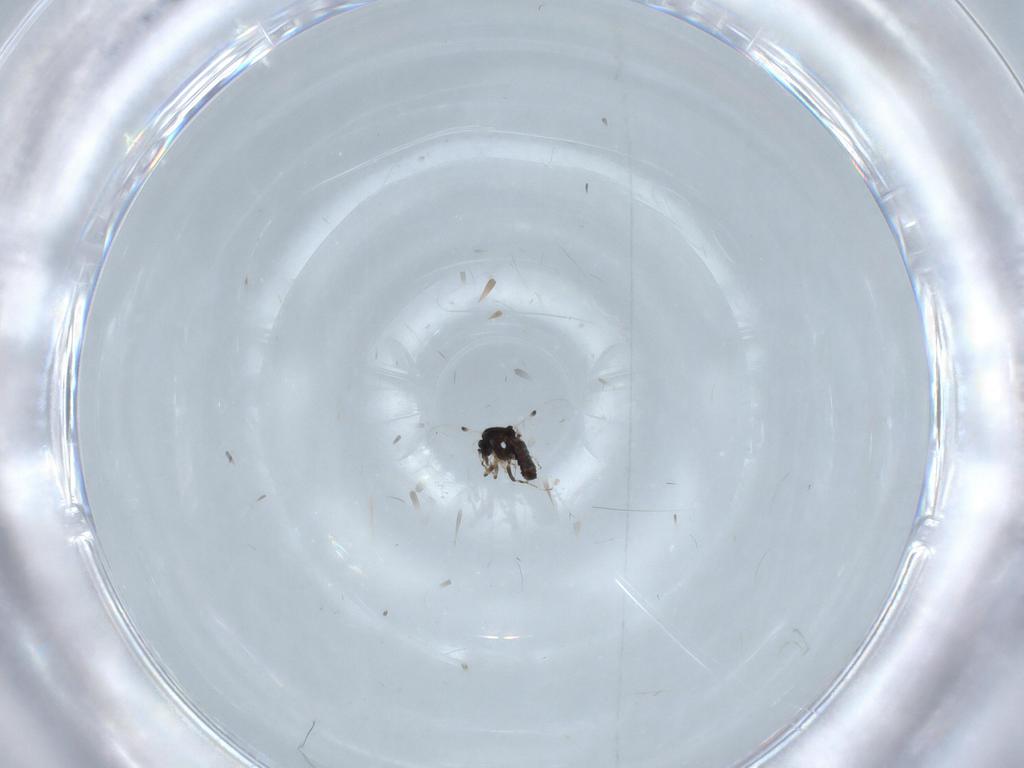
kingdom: Animalia
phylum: Arthropoda
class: Insecta
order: Diptera
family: Ceratopogonidae
